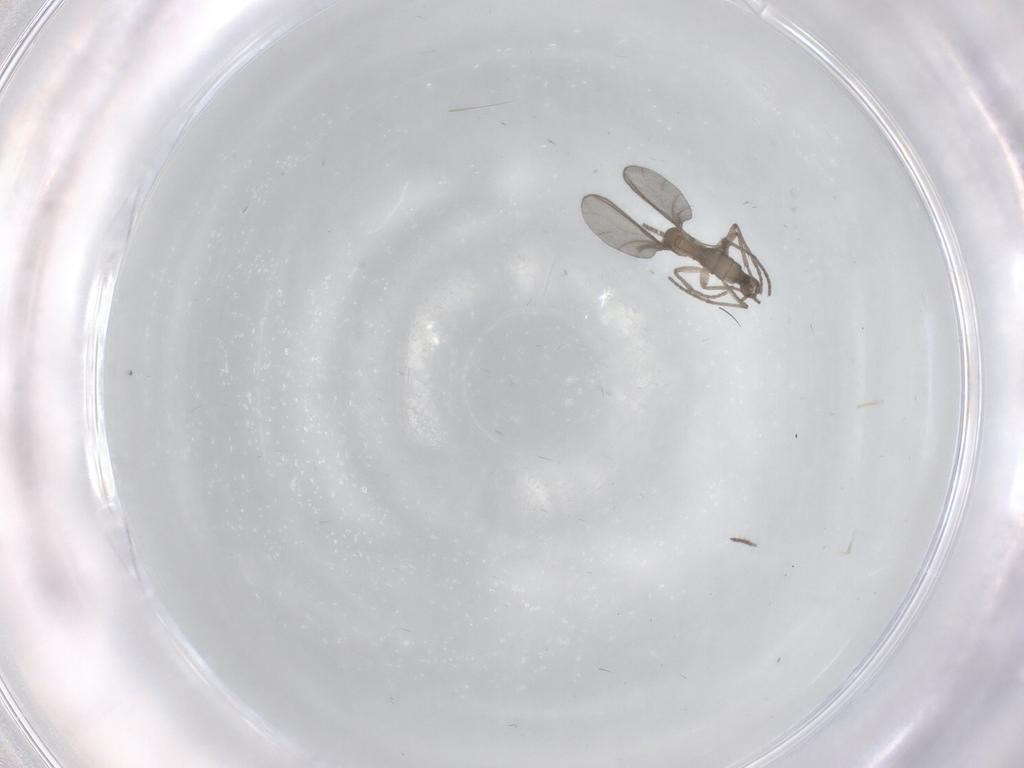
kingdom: Animalia
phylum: Arthropoda
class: Insecta
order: Diptera
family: Sciaridae
